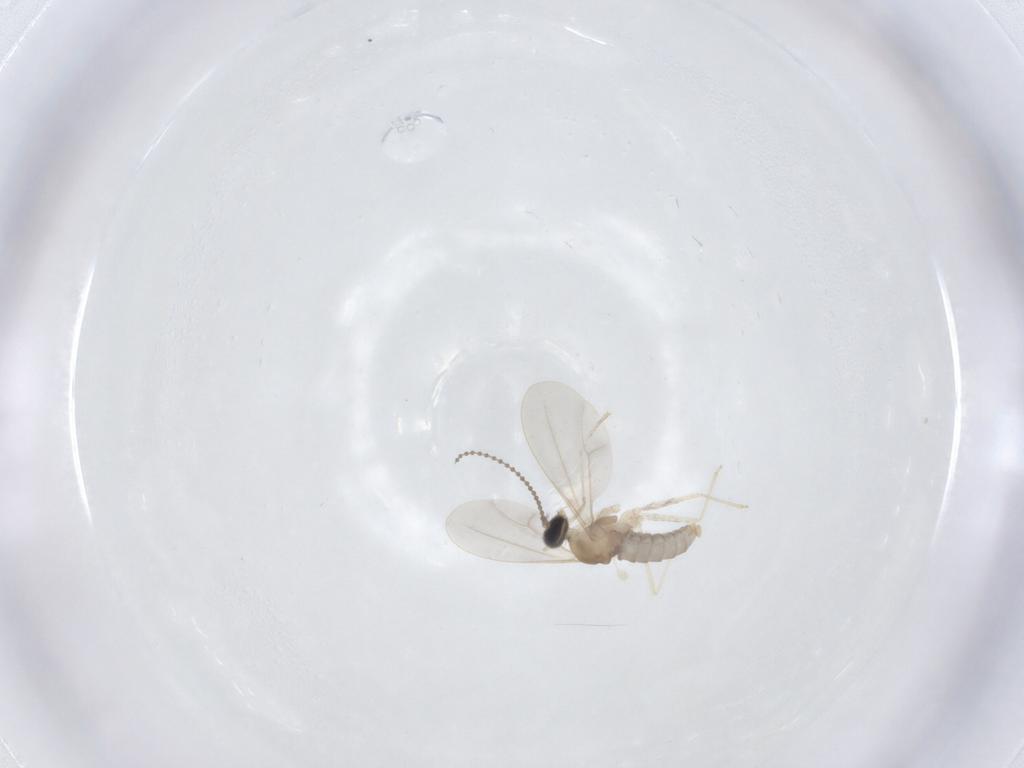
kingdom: Animalia
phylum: Arthropoda
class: Insecta
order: Diptera
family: Cecidomyiidae
